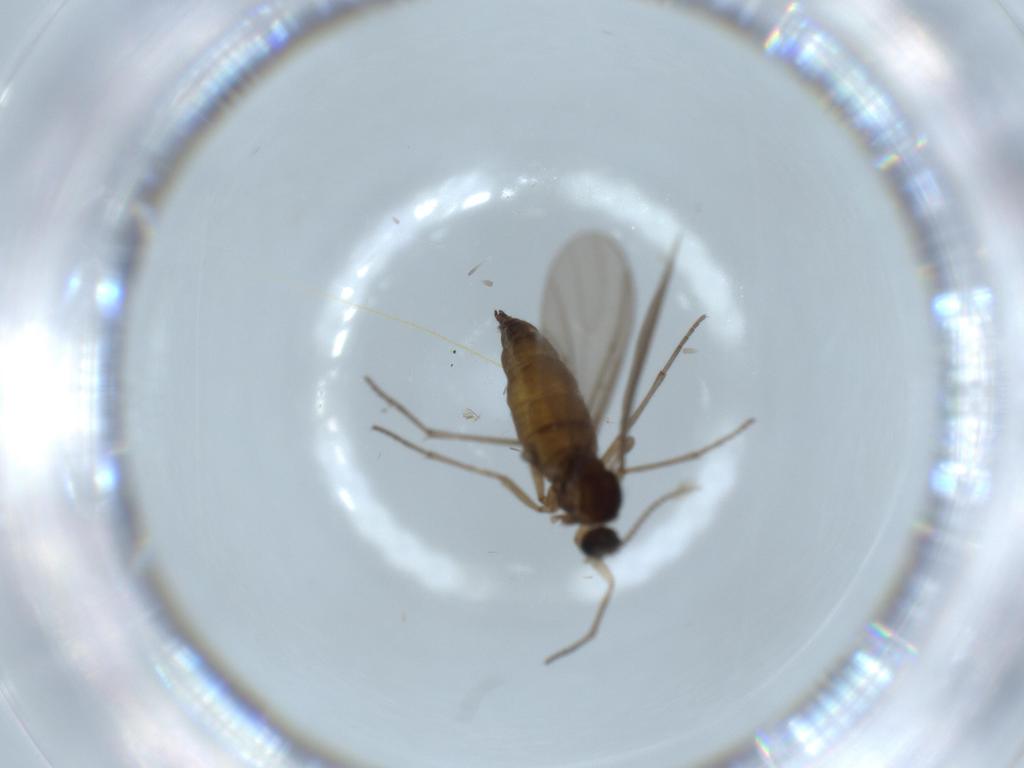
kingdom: Animalia
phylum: Arthropoda
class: Insecta
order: Diptera
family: Sciaridae
